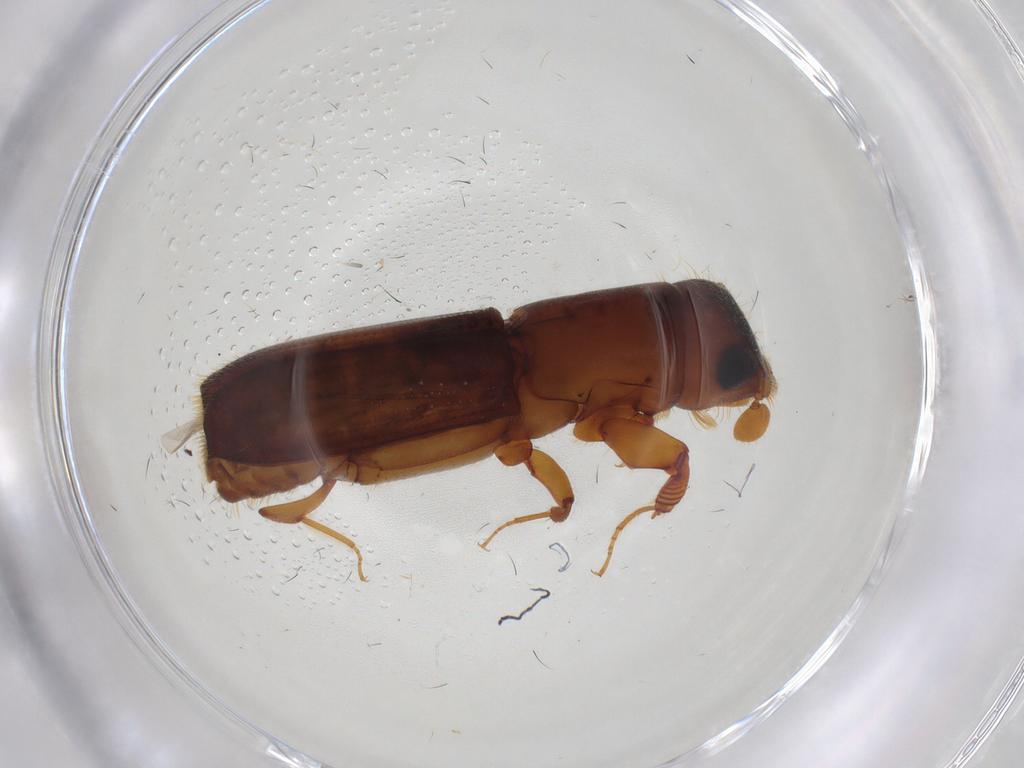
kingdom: Animalia
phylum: Arthropoda
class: Insecta
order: Coleoptera
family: Curculionidae
